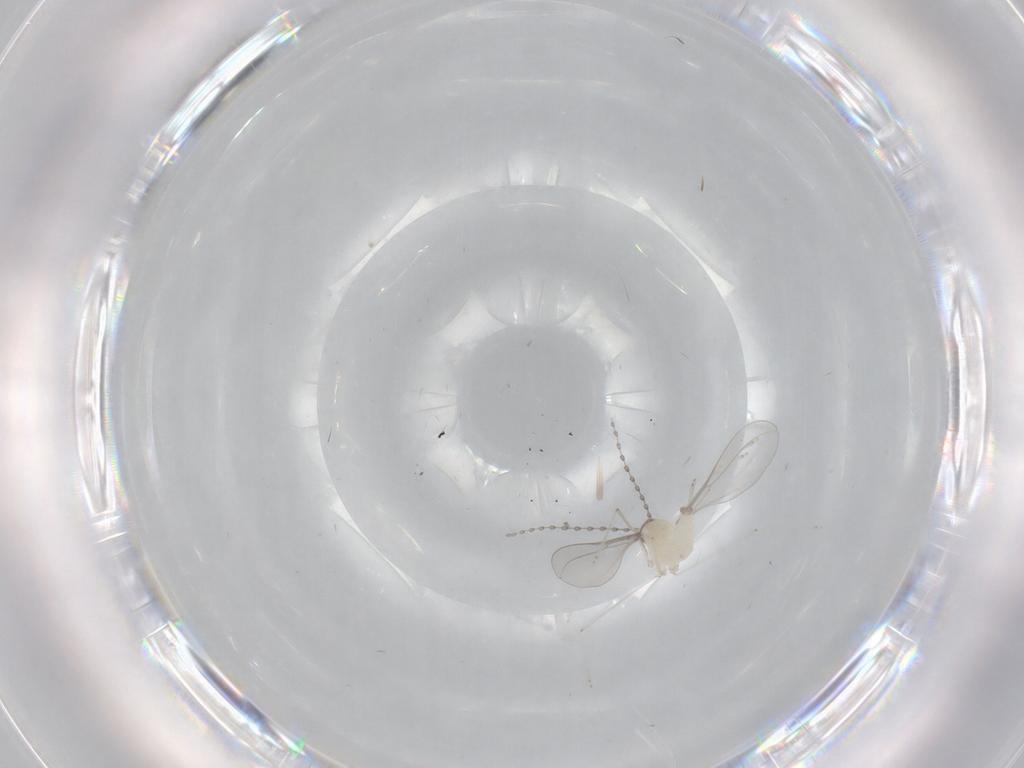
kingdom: Animalia
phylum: Arthropoda
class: Insecta
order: Diptera
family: Cecidomyiidae
